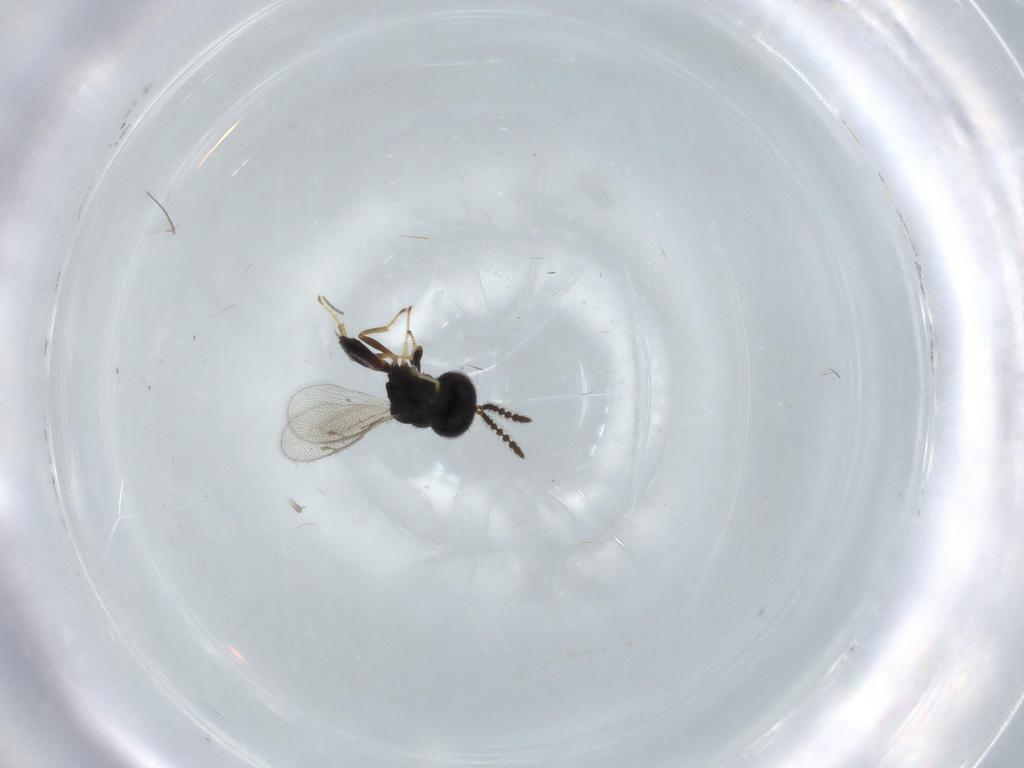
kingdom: Animalia
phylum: Arthropoda
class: Insecta
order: Hymenoptera
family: Pteromalidae
